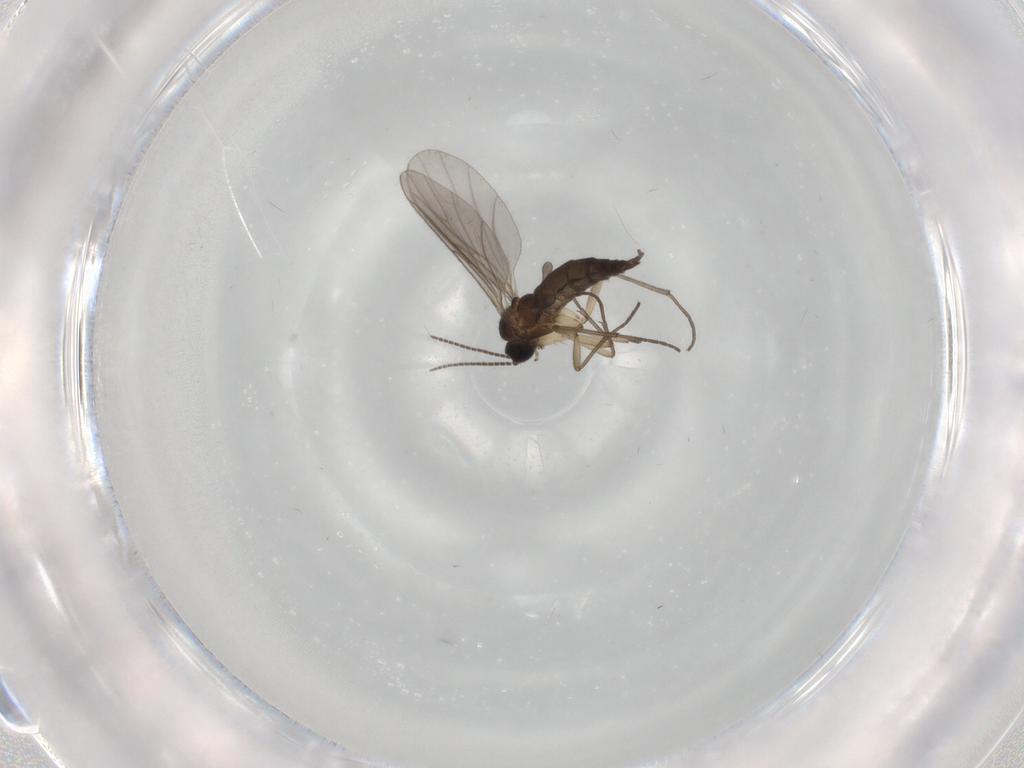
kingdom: Animalia
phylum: Arthropoda
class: Insecta
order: Diptera
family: Sciaridae
